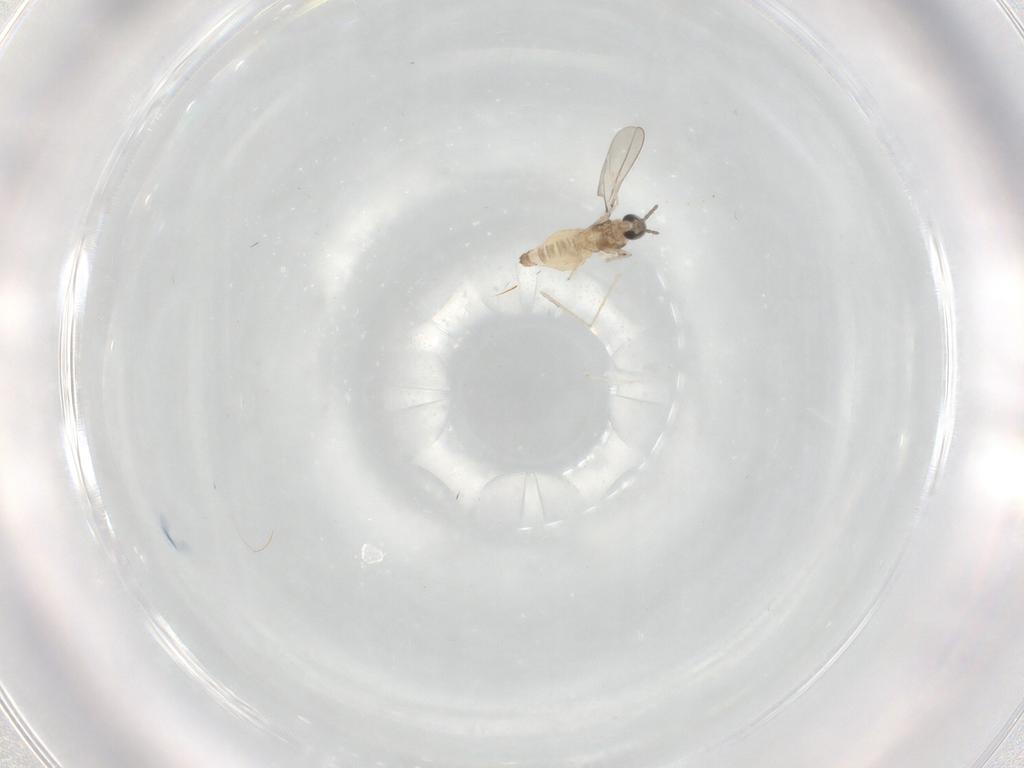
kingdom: Animalia
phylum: Arthropoda
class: Insecta
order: Diptera
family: Cecidomyiidae
